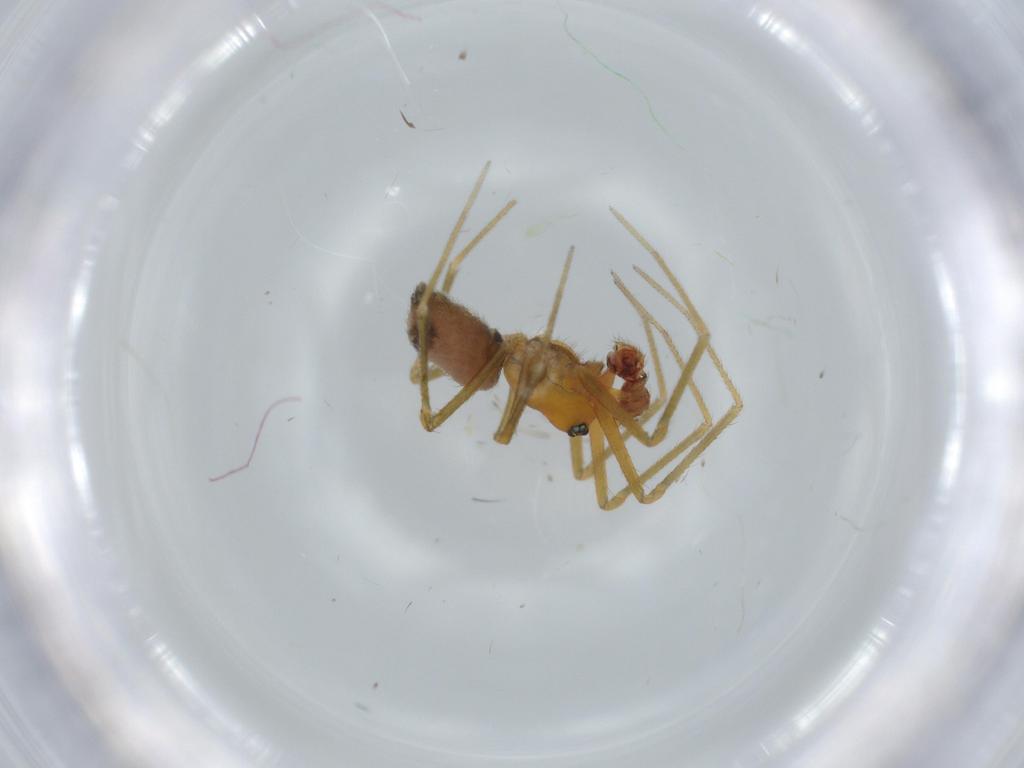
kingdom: Animalia
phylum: Arthropoda
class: Arachnida
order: Araneae
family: Linyphiidae
